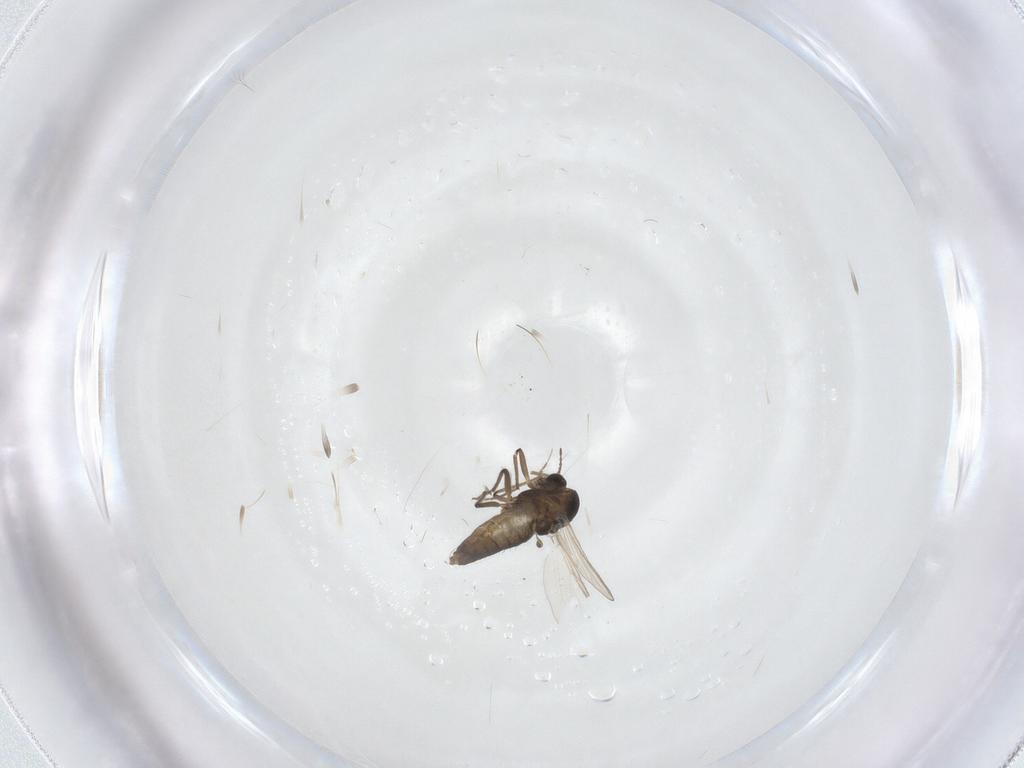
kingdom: Animalia
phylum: Arthropoda
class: Insecta
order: Diptera
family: Chironomidae
